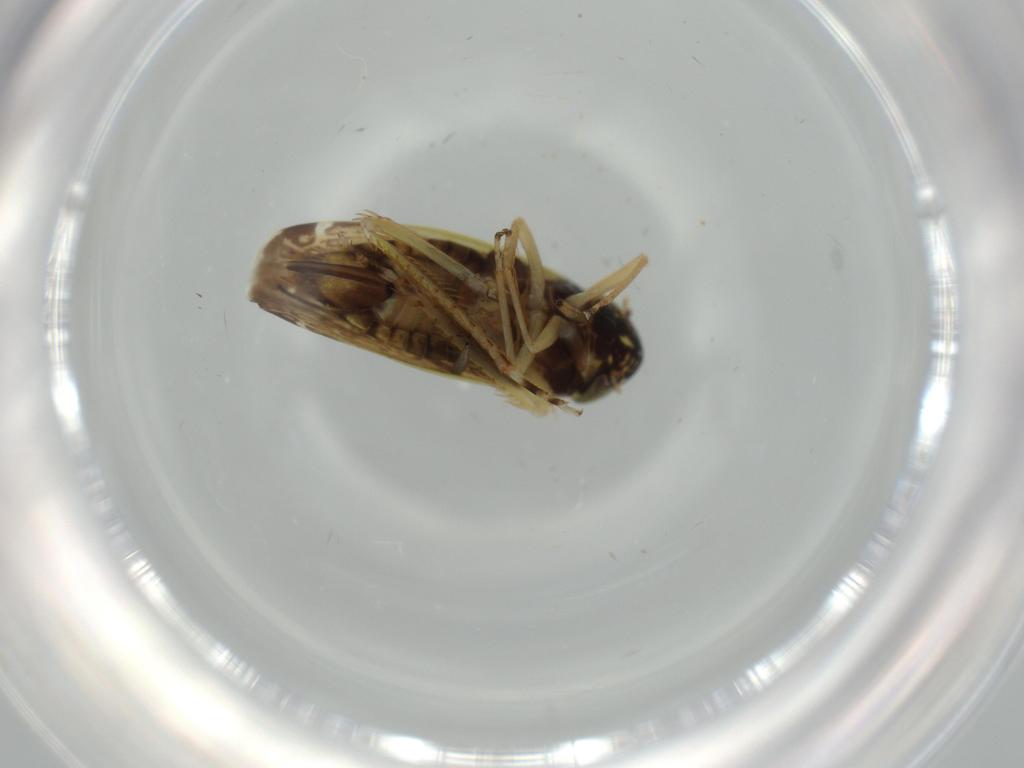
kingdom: Animalia
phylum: Arthropoda
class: Insecta
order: Hemiptera
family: Cicadellidae
